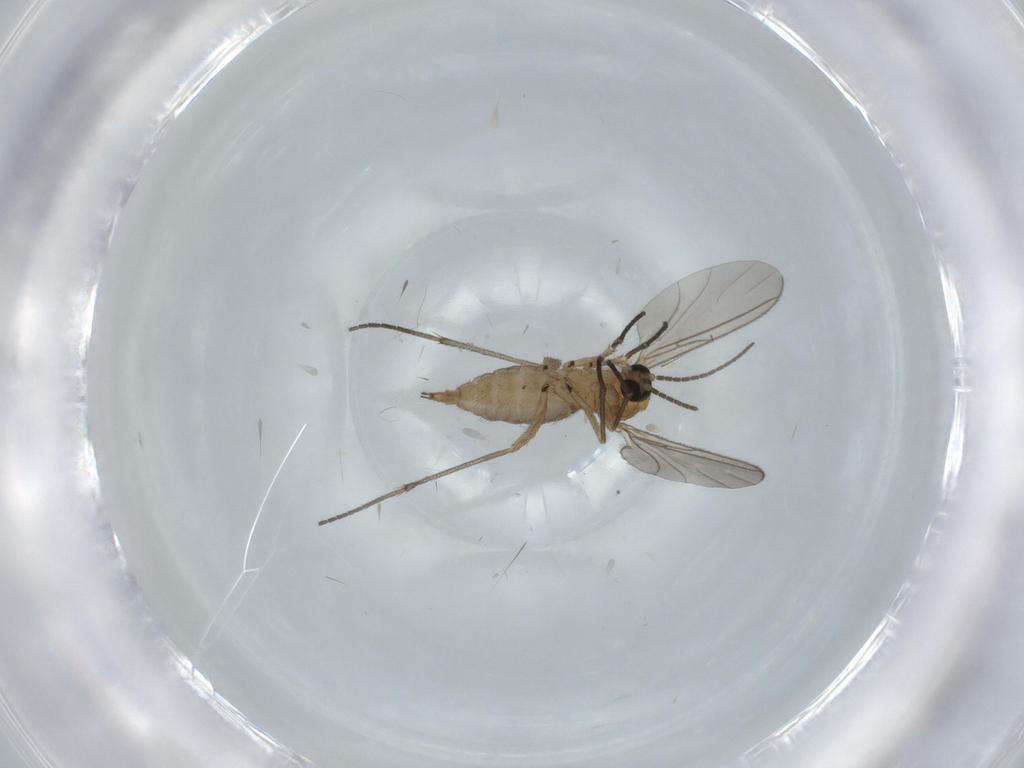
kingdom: Animalia
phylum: Arthropoda
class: Insecta
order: Diptera
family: Sciaridae
